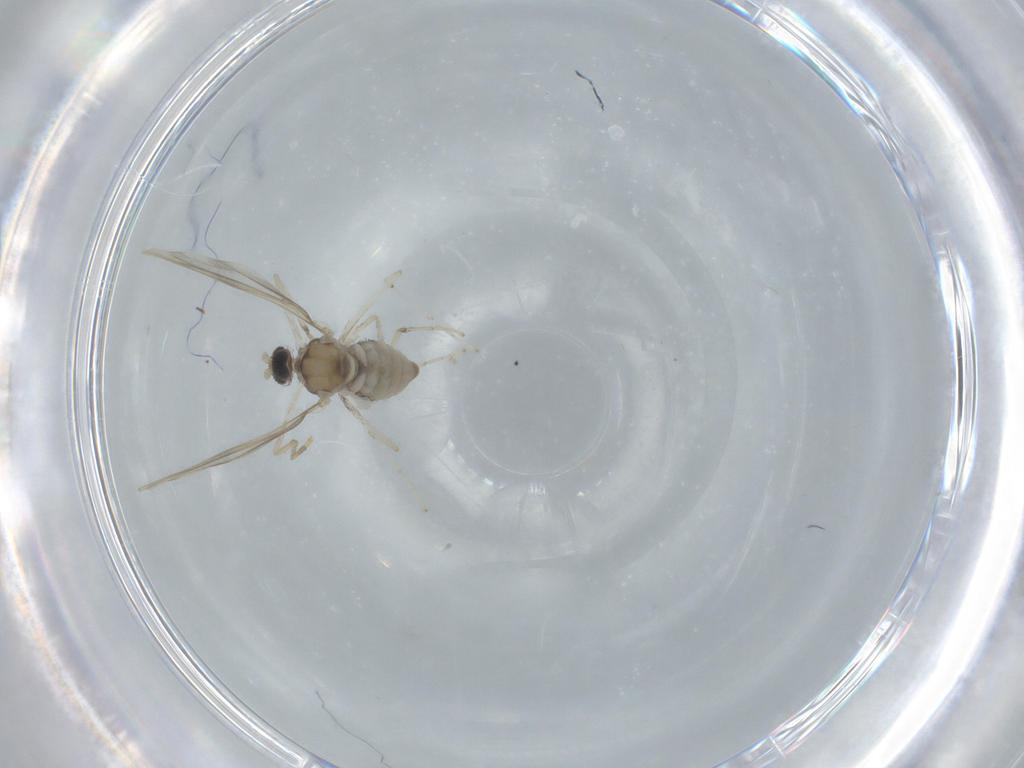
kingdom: Animalia
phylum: Arthropoda
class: Insecta
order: Diptera
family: Cecidomyiidae
